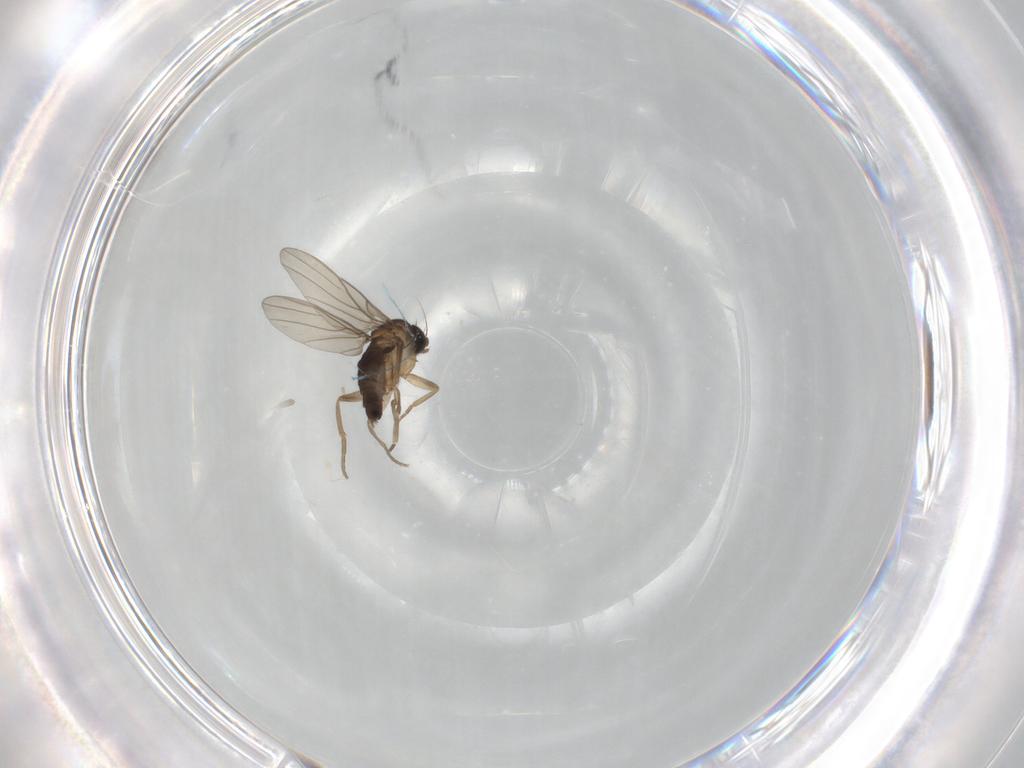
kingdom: Animalia
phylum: Arthropoda
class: Insecta
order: Diptera
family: Phoridae
